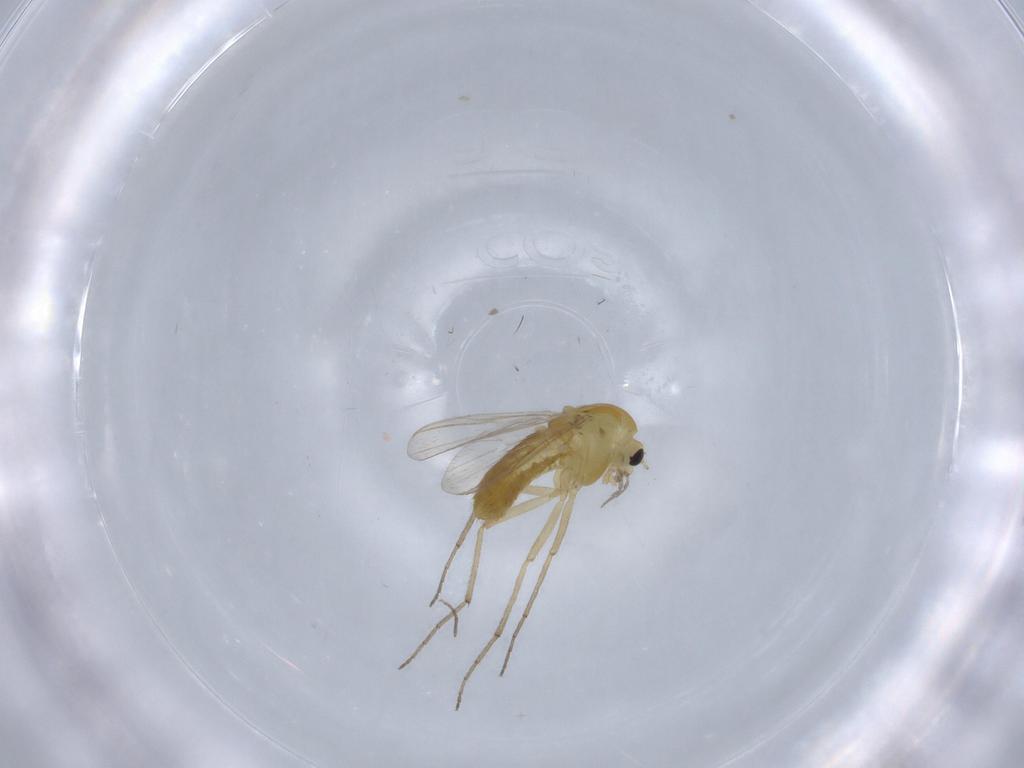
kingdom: Animalia
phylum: Arthropoda
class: Insecta
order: Diptera
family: Chironomidae
